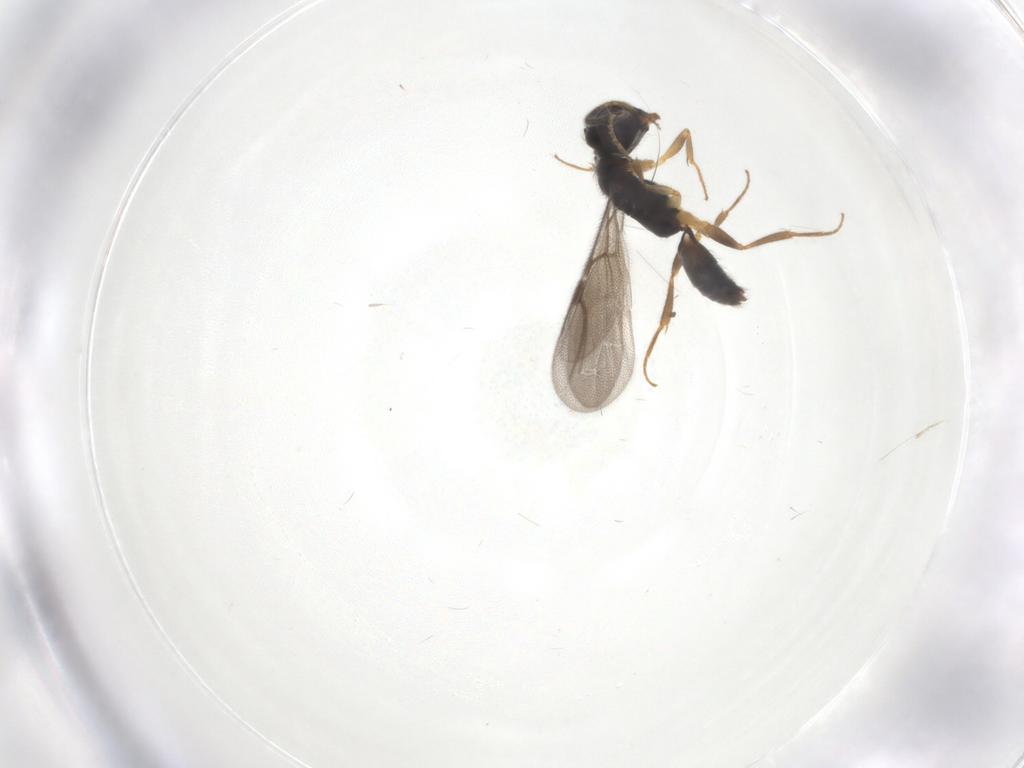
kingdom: Animalia
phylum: Arthropoda
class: Insecta
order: Hymenoptera
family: Bethylidae
